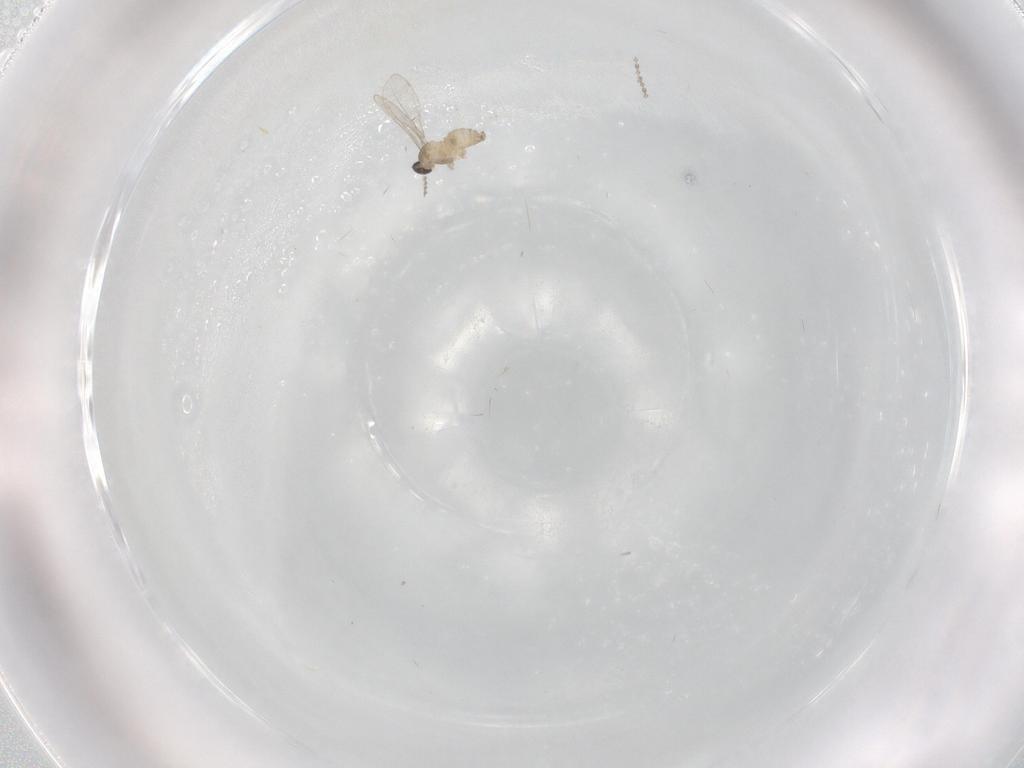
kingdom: Animalia
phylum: Arthropoda
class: Insecta
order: Diptera
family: Cecidomyiidae
